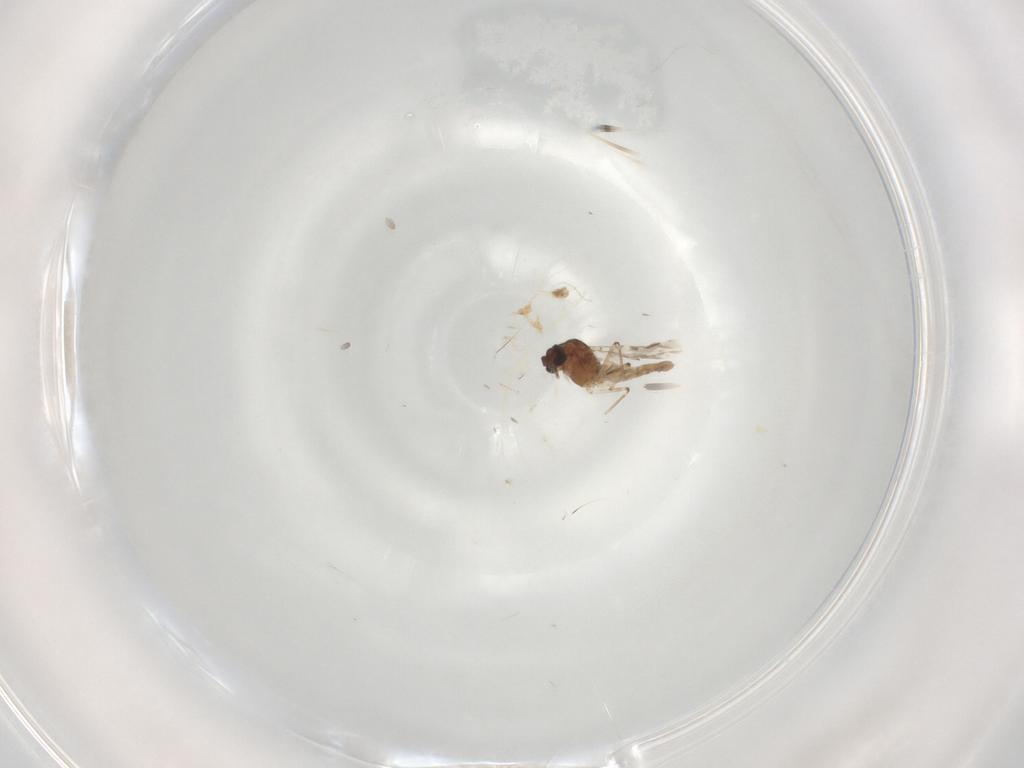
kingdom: Animalia
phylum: Arthropoda
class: Insecta
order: Diptera
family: Ceratopogonidae
